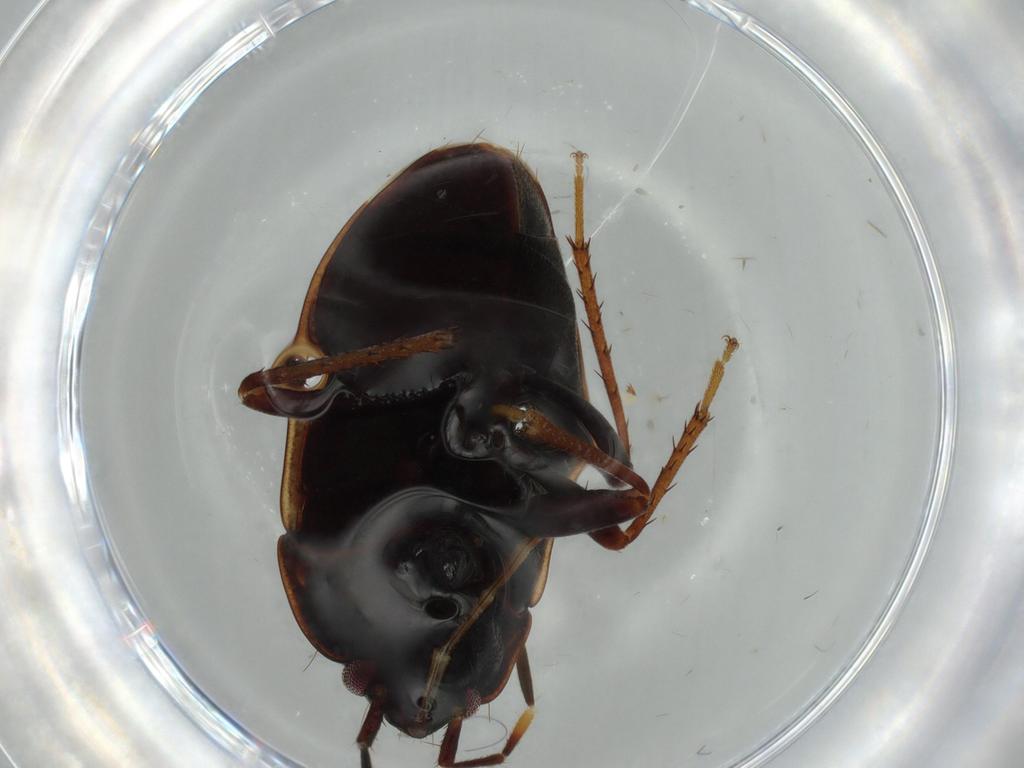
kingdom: Animalia
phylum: Arthropoda
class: Insecta
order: Hemiptera
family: Rhyparochromidae
